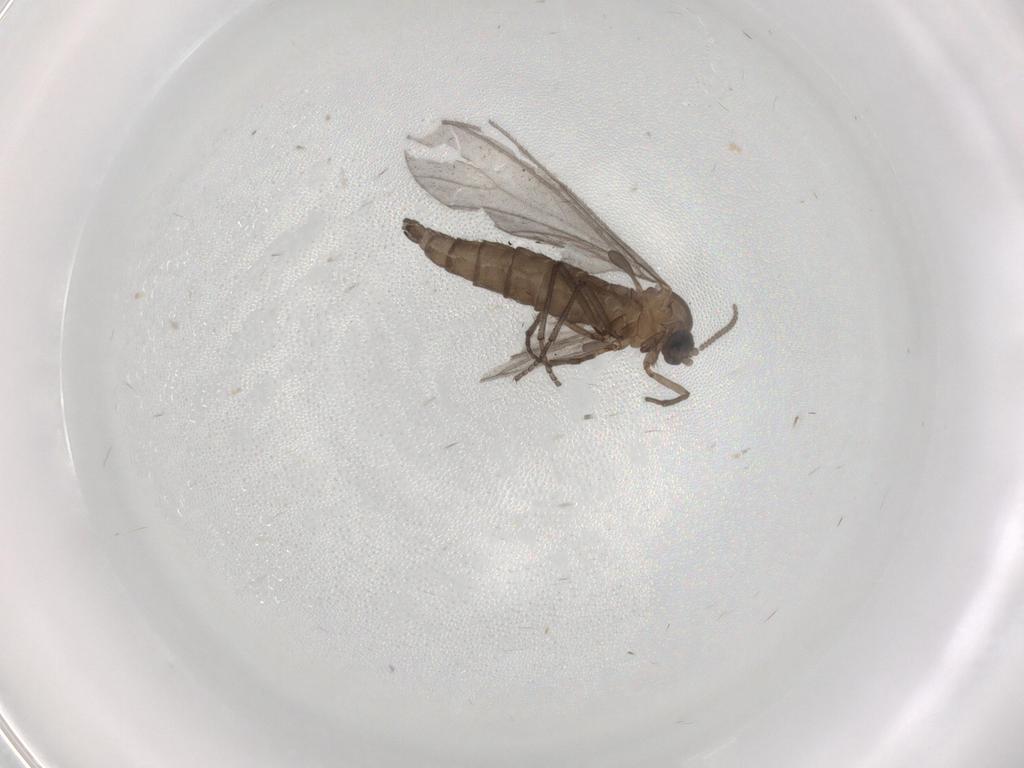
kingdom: Animalia
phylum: Arthropoda
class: Insecta
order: Diptera
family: Sciaridae
